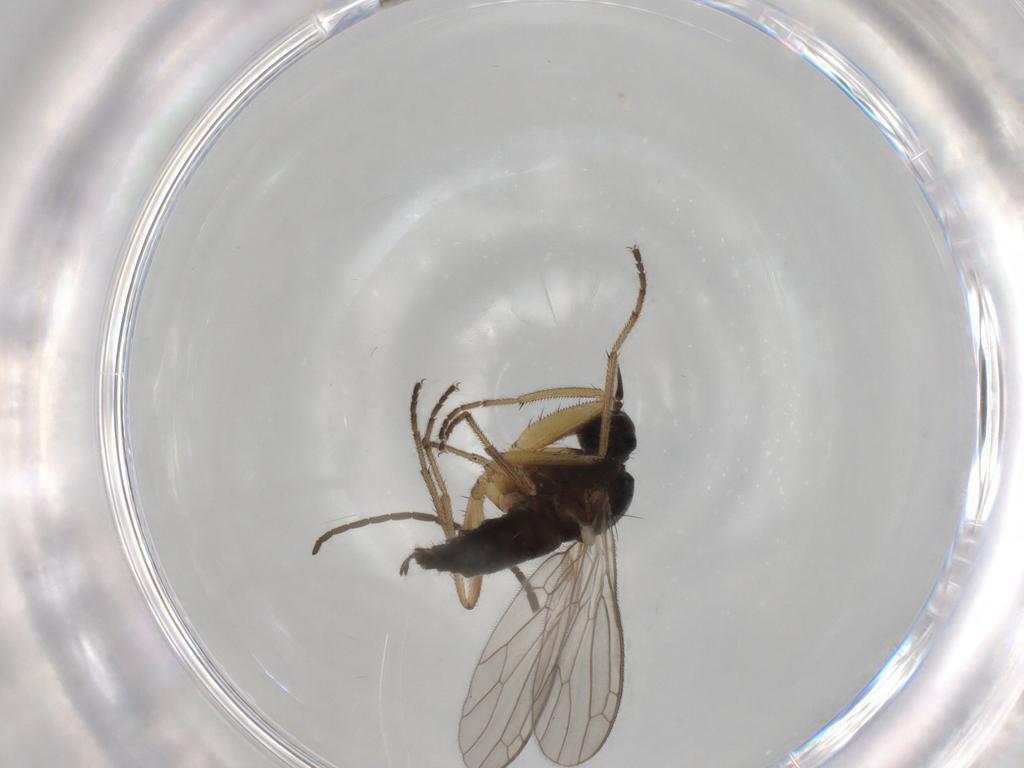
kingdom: Animalia
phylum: Arthropoda
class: Insecta
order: Diptera
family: Empididae
